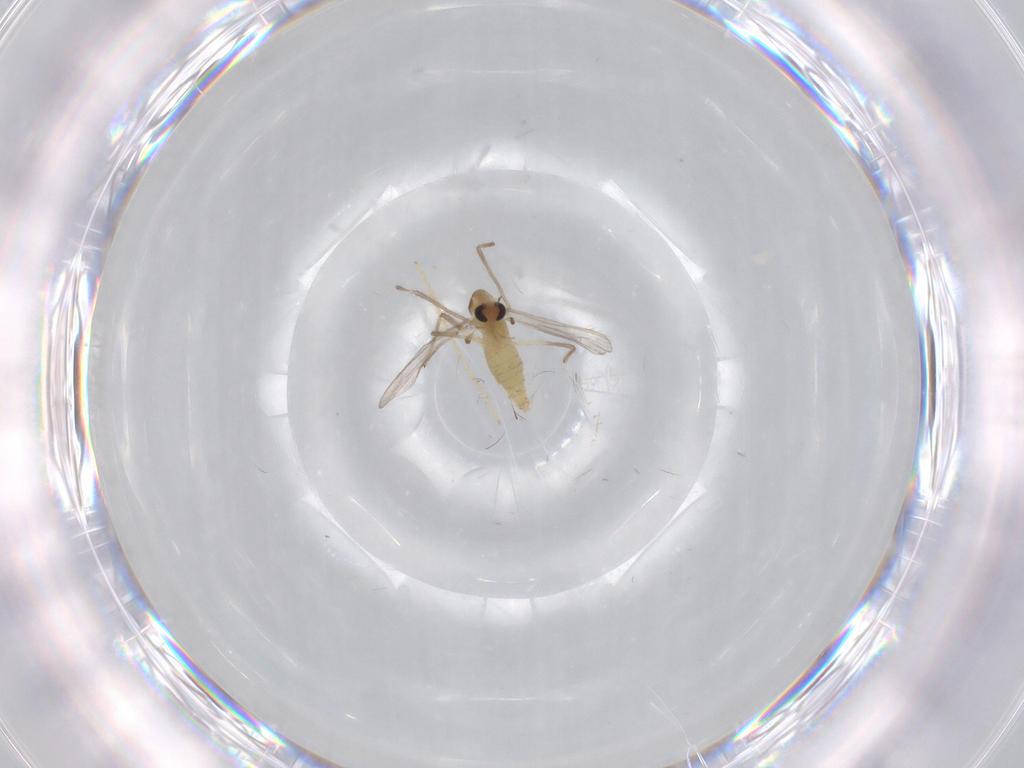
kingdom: Animalia
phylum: Arthropoda
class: Insecta
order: Diptera
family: Chironomidae
